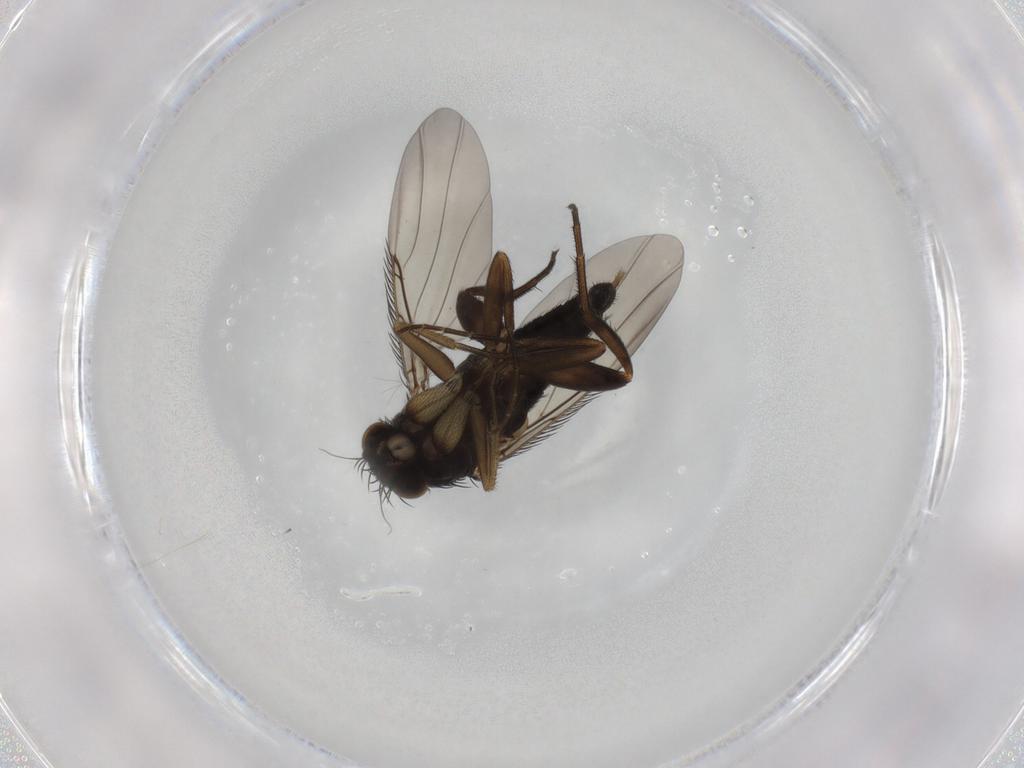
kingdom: Animalia
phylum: Arthropoda
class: Insecta
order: Diptera
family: Phoridae
